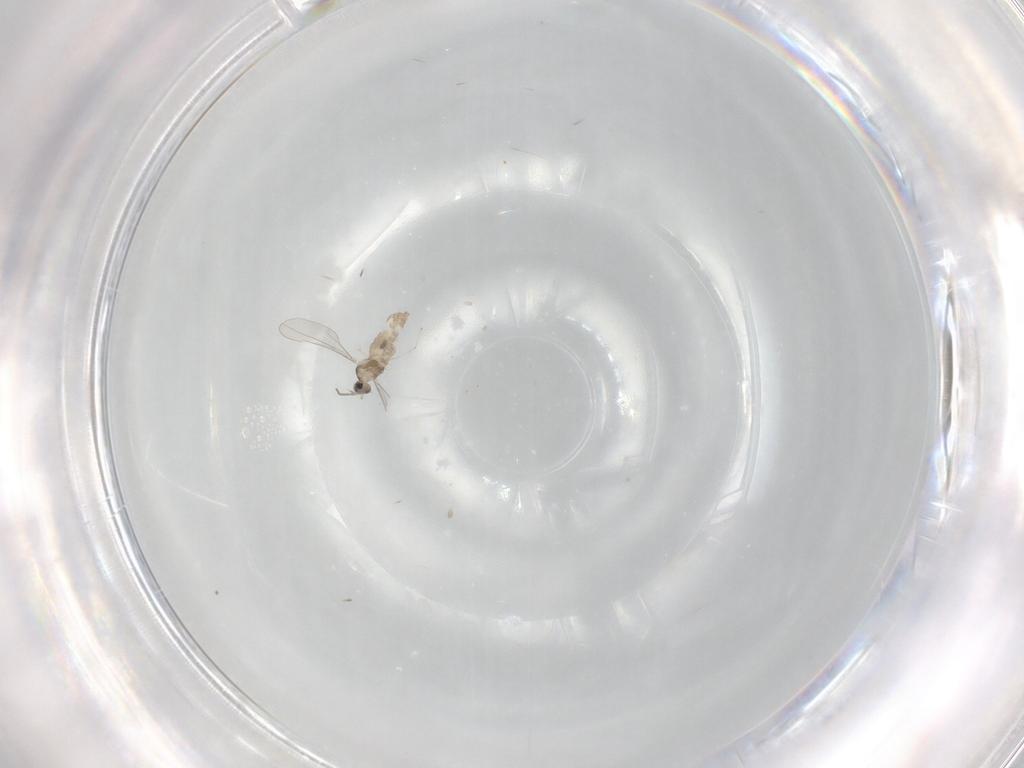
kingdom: Animalia
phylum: Arthropoda
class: Insecta
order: Diptera
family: Cecidomyiidae
